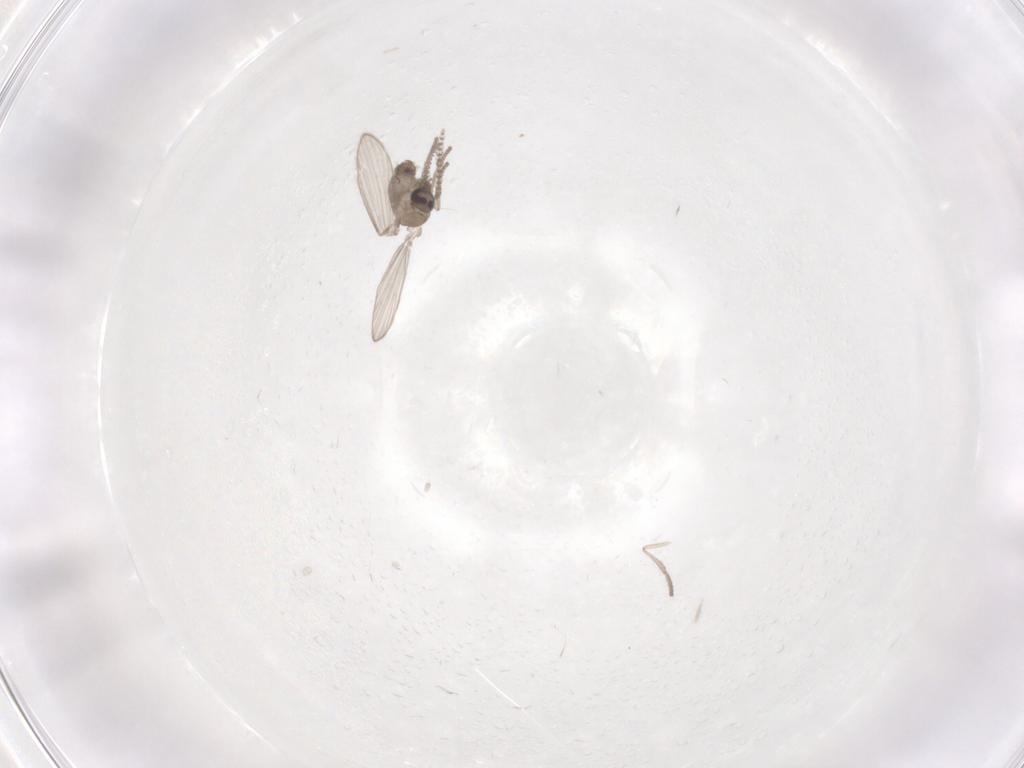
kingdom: Animalia
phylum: Arthropoda
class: Insecta
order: Diptera
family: Psychodidae
